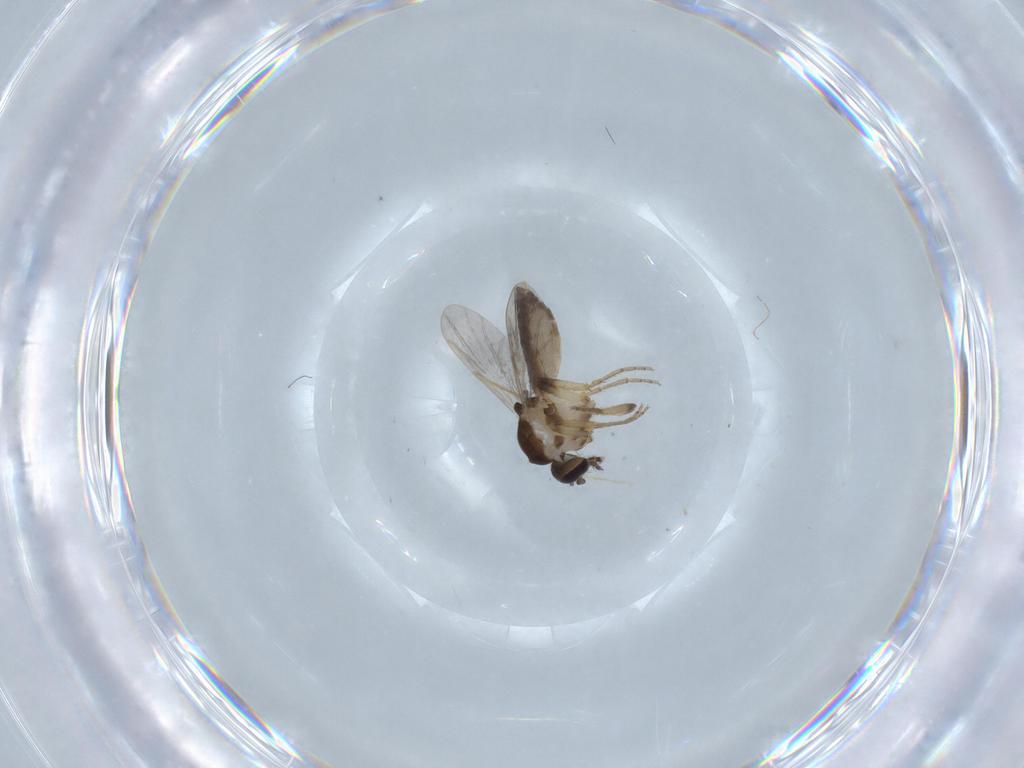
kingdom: Animalia
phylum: Arthropoda
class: Insecta
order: Diptera
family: Ceratopogonidae
